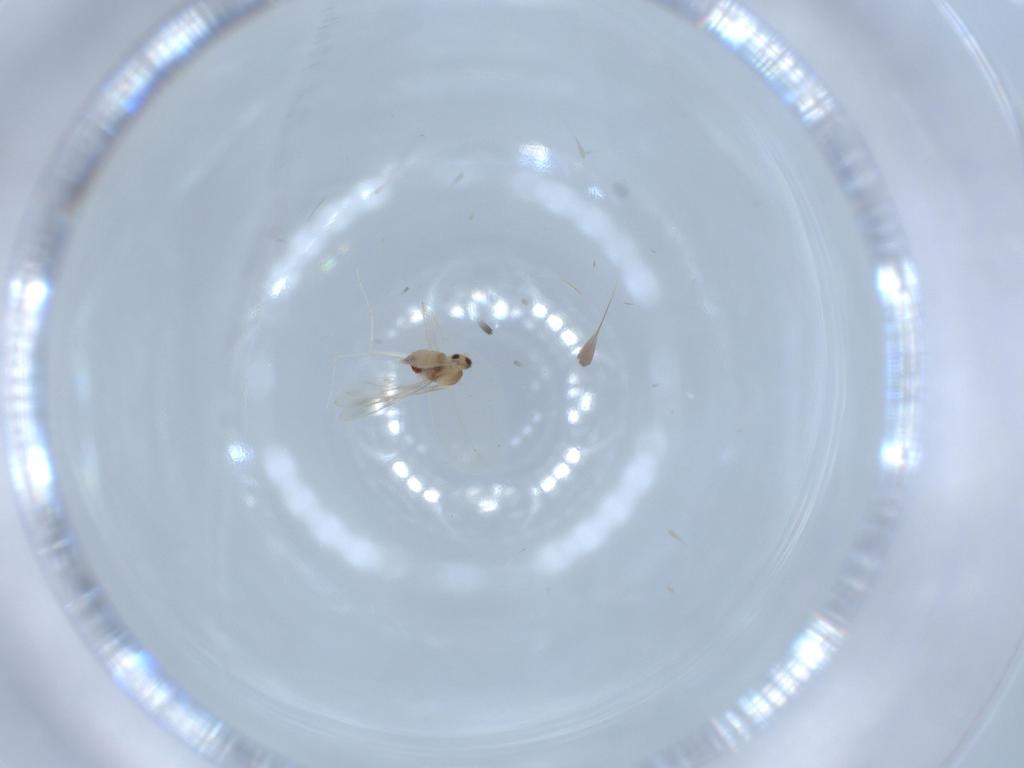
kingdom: Animalia
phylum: Arthropoda
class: Insecta
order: Diptera
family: Cecidomyiidae
